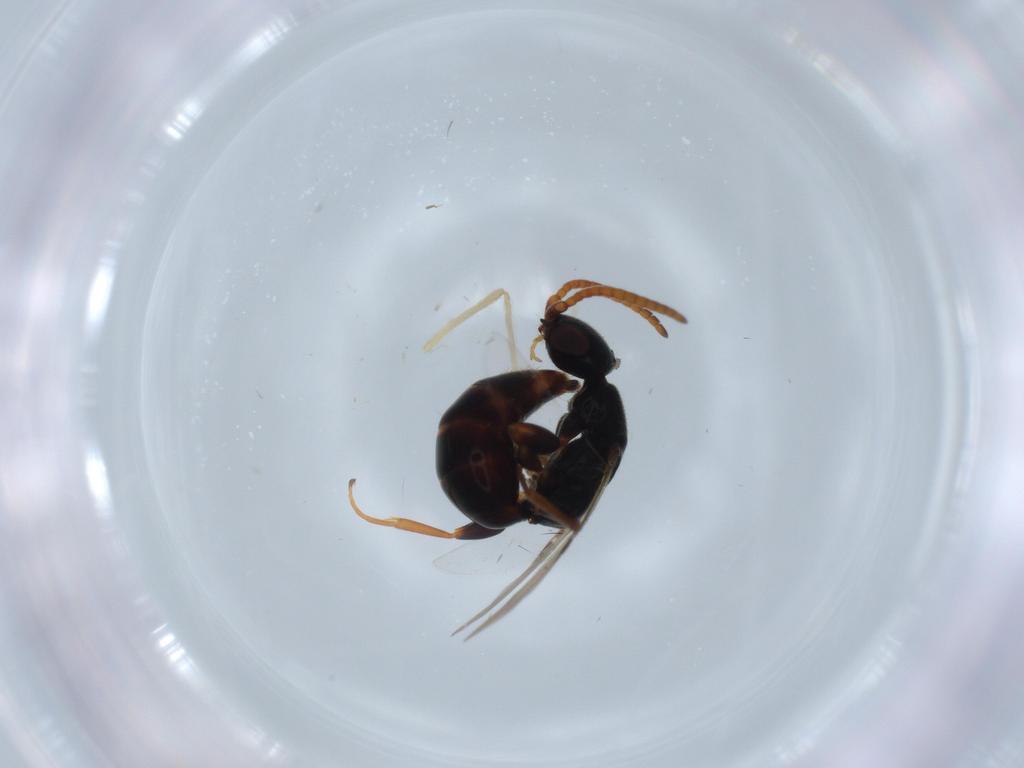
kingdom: Animalia
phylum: Arthropoda
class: Insecta
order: Hymenoptera
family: Bethylidae
